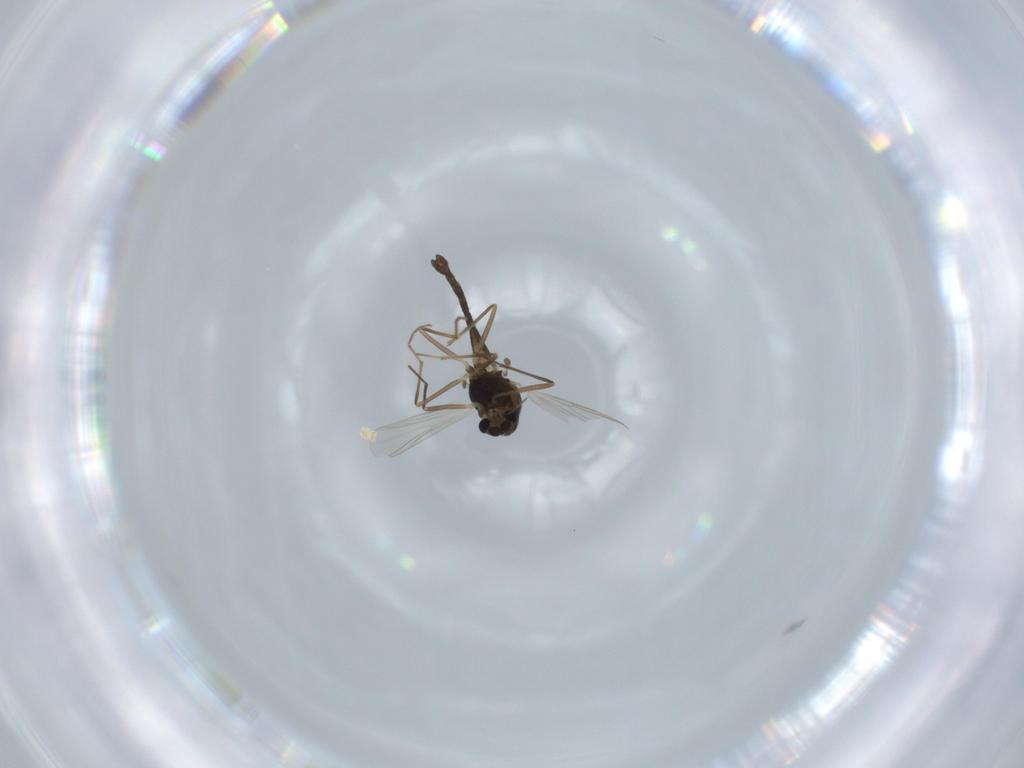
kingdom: Animalia
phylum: Arthropoda
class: Insecta
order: Diptera
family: Chironomidae
